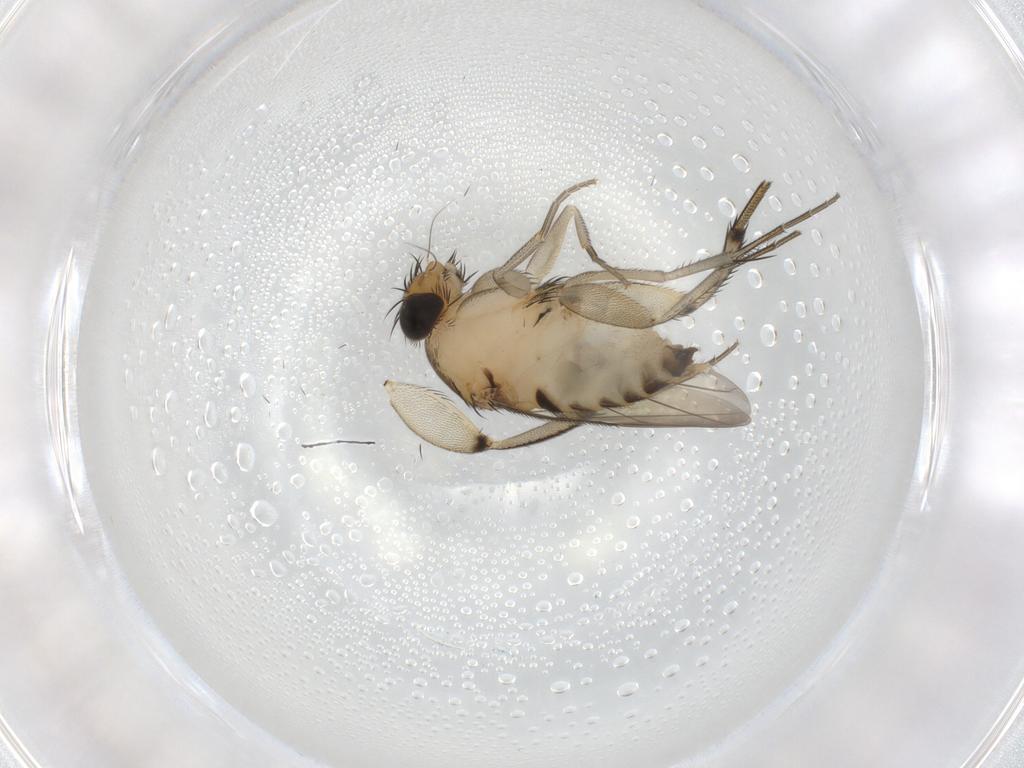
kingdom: Animalia
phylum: Arthropoda
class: Insecta
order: Diptera
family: Phoridae
